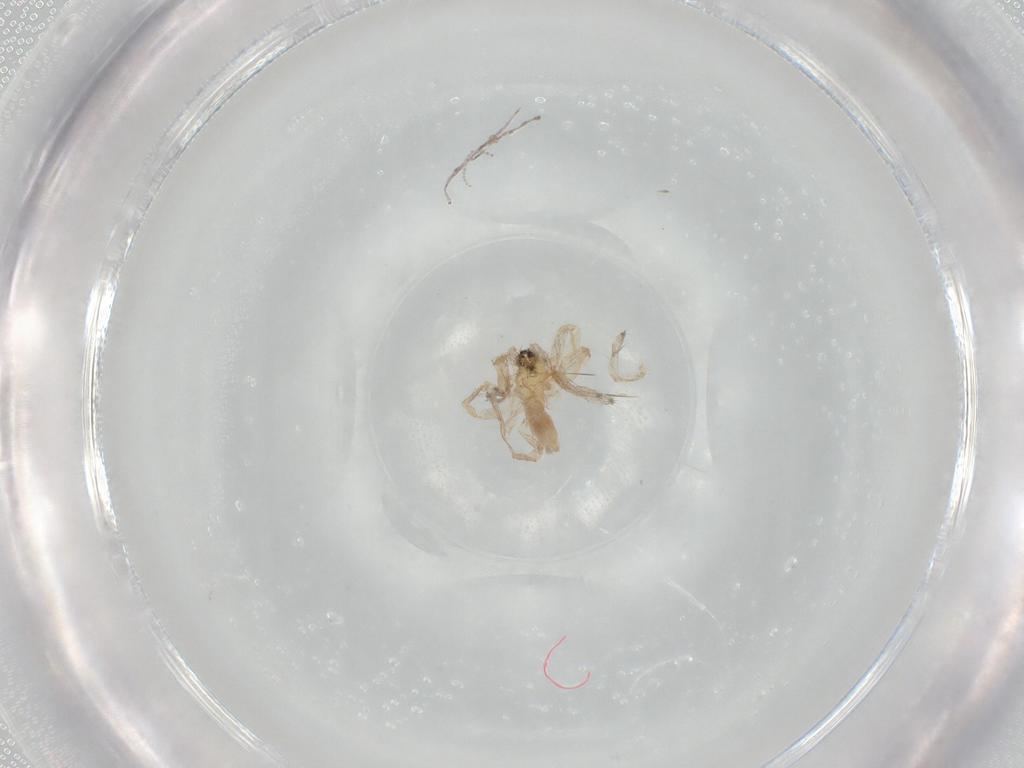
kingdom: Animalia
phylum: Arthropoda
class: Arachnida
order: Araneae
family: Anyphaenidae
